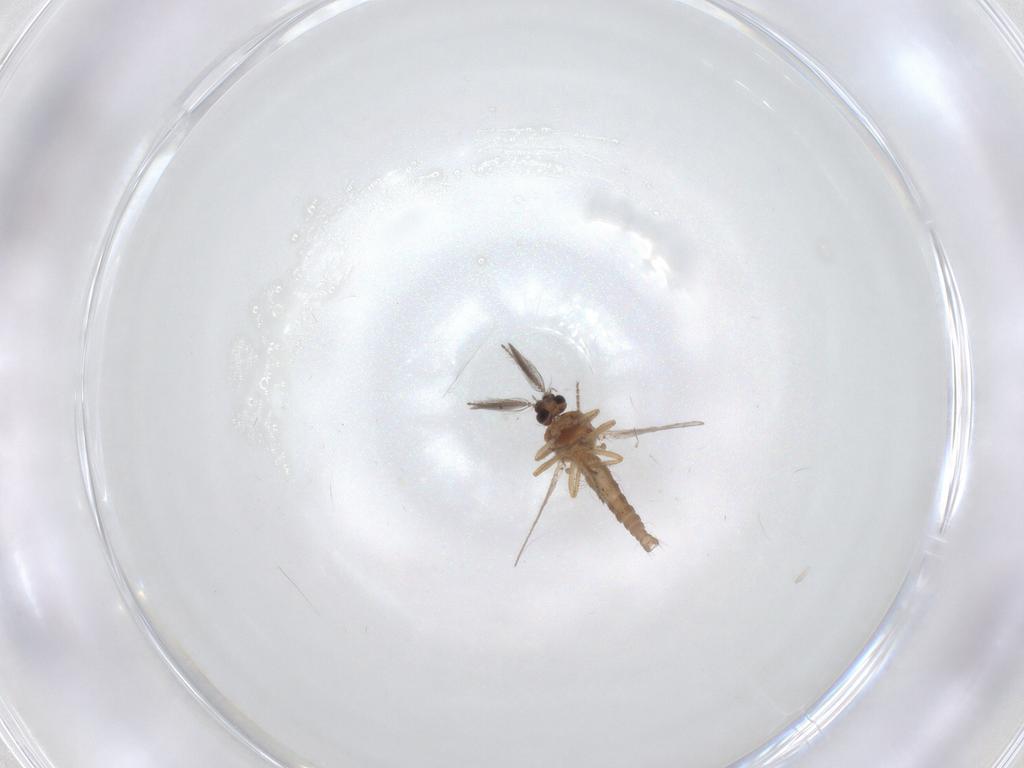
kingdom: Animalia
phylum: Arthropoda
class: Insecta
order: Diptera
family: Ceratopogonidae
